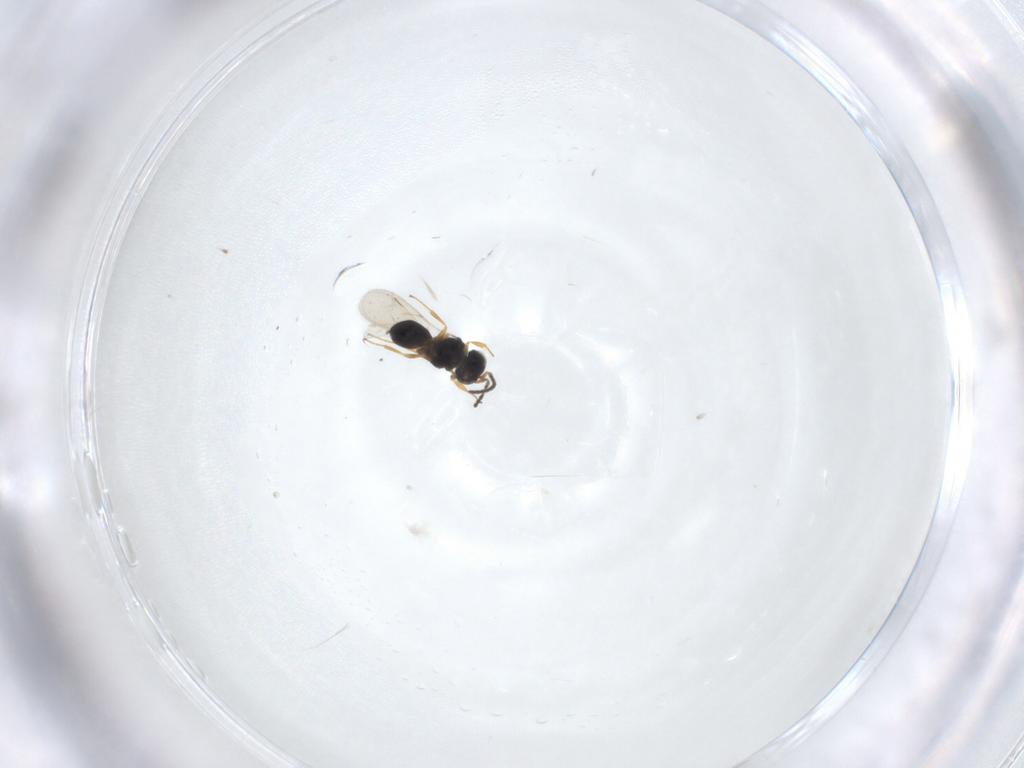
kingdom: Animalia
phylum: Arthropoda
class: Insecta
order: Hymenoptera
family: Scelionidae
